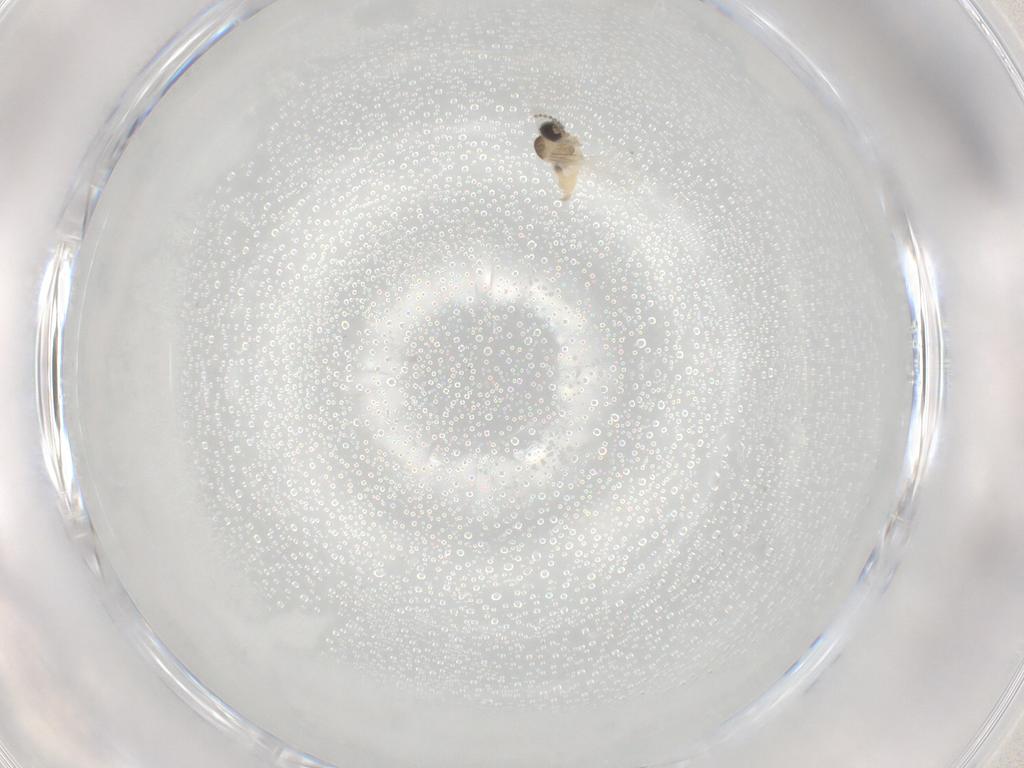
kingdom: Animalia
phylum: Arthropoda
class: Insecta
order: Diptera
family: Cecidomyiidae
